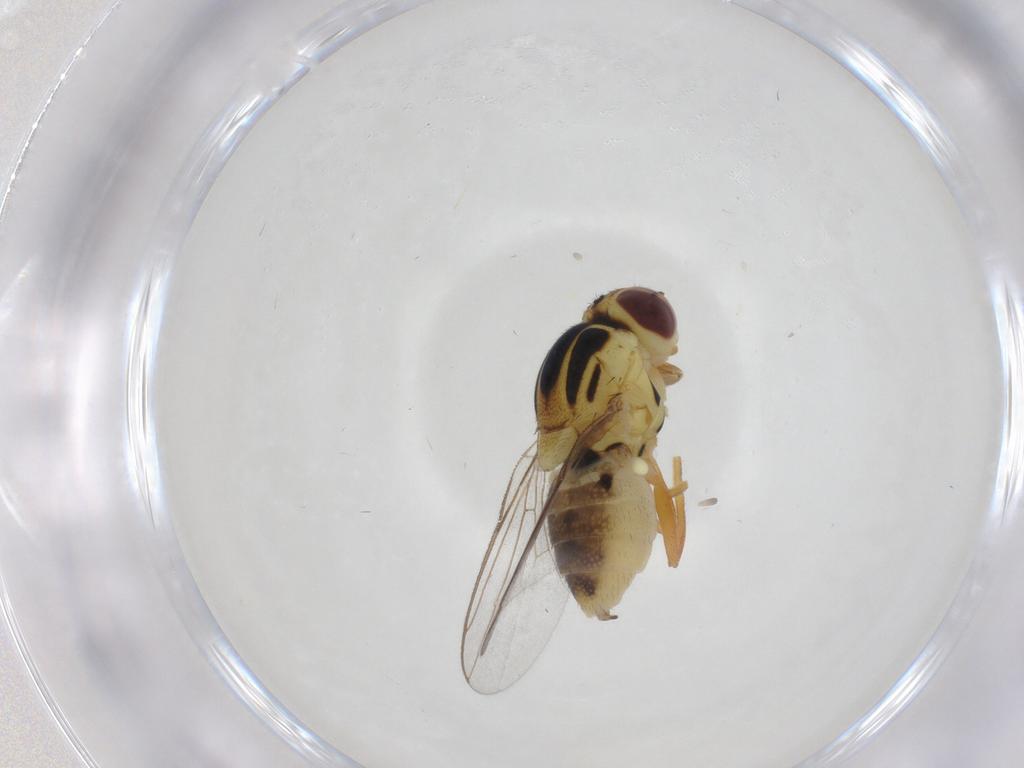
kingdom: Animalia
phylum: Arthropoda
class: Insecta
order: Diptera
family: Chloropidae
